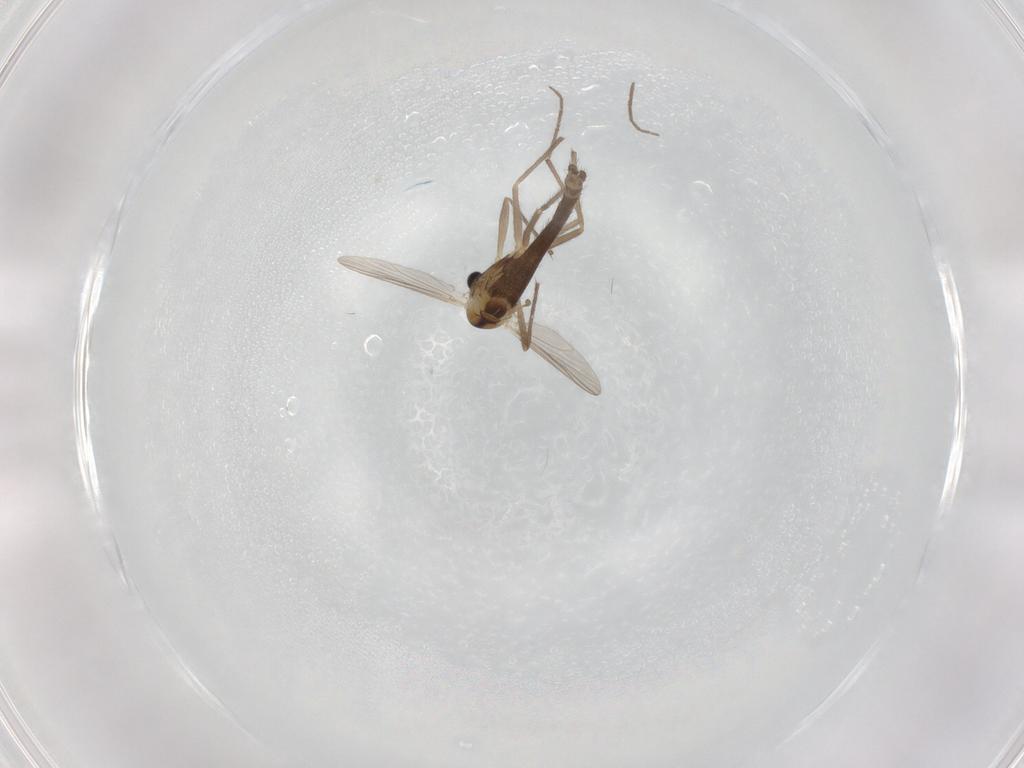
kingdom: Animalia
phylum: Arthropoda
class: Insecta
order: Diptera
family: Chironomidae
